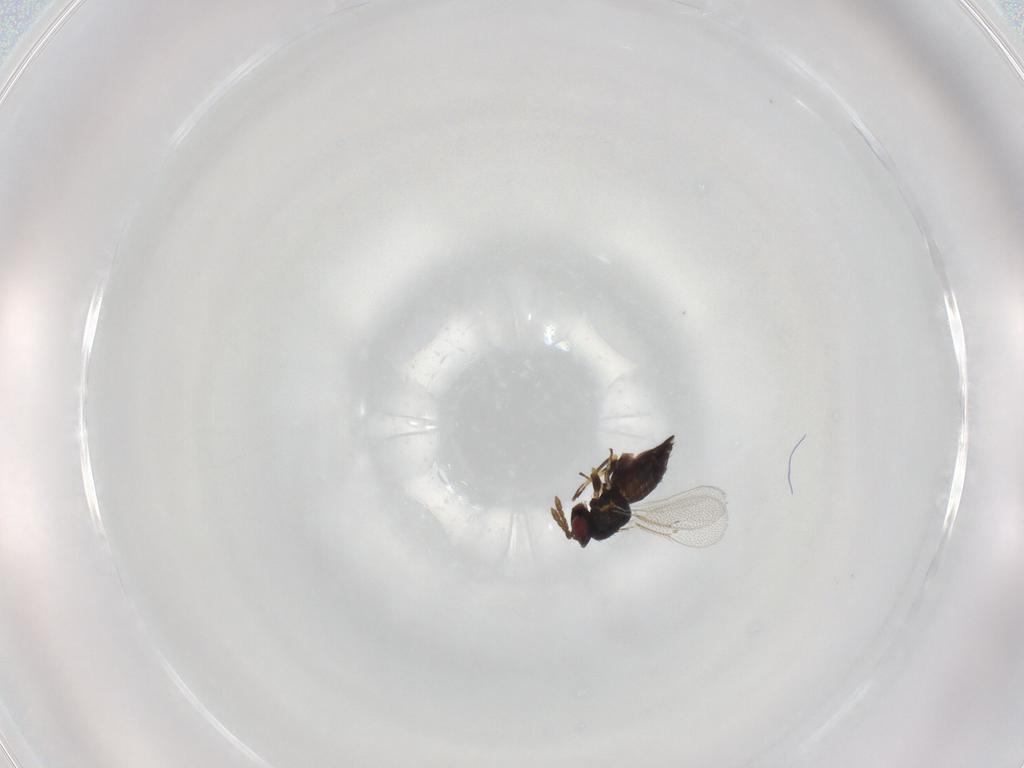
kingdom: Animalia
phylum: Arthropoda
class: Insecta
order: Hymenoptera
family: Eulophidae
